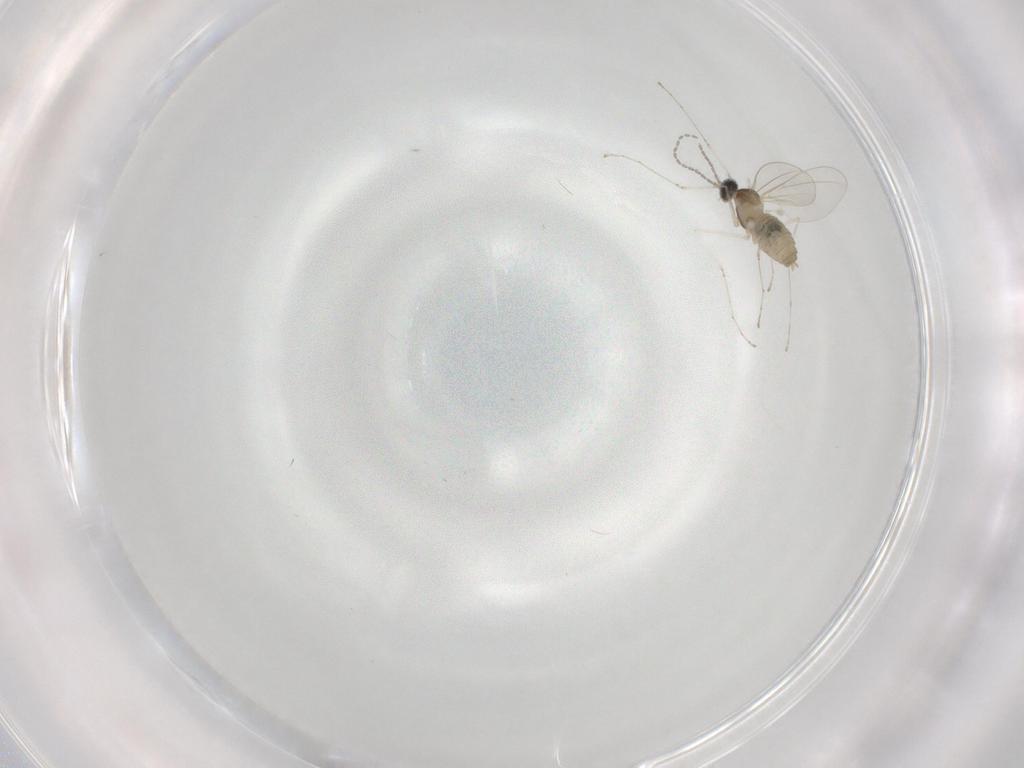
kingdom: Animalia
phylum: Arthropoda
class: Insecta
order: Diptera
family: Cecidomyiidae
